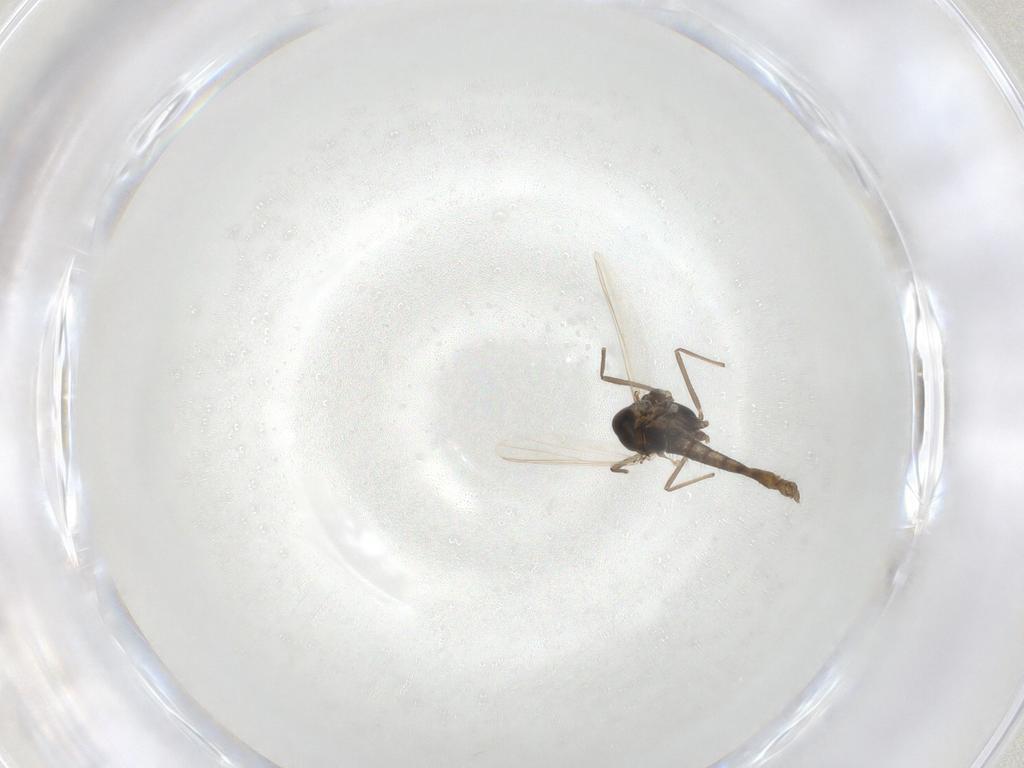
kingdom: Animalia
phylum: Arthropoda
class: Insecta
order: Diptera
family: Chironomidae
